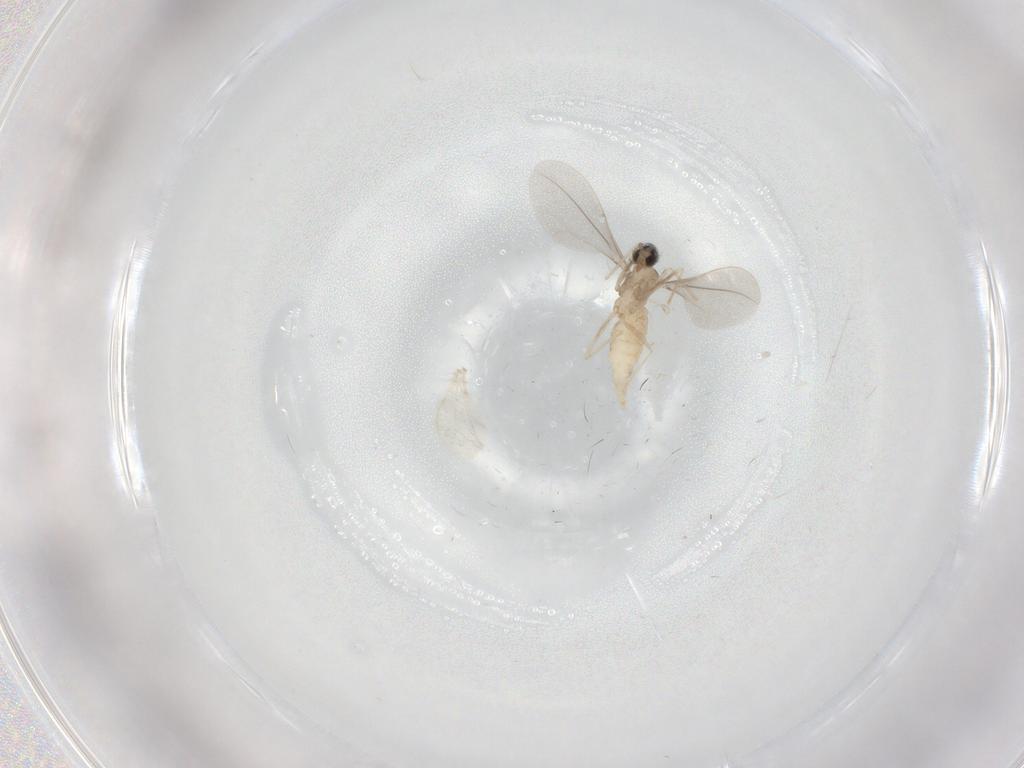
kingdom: Animalia
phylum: Arthropoda
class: Insecta
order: Diptera
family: Cecidomyiidae
